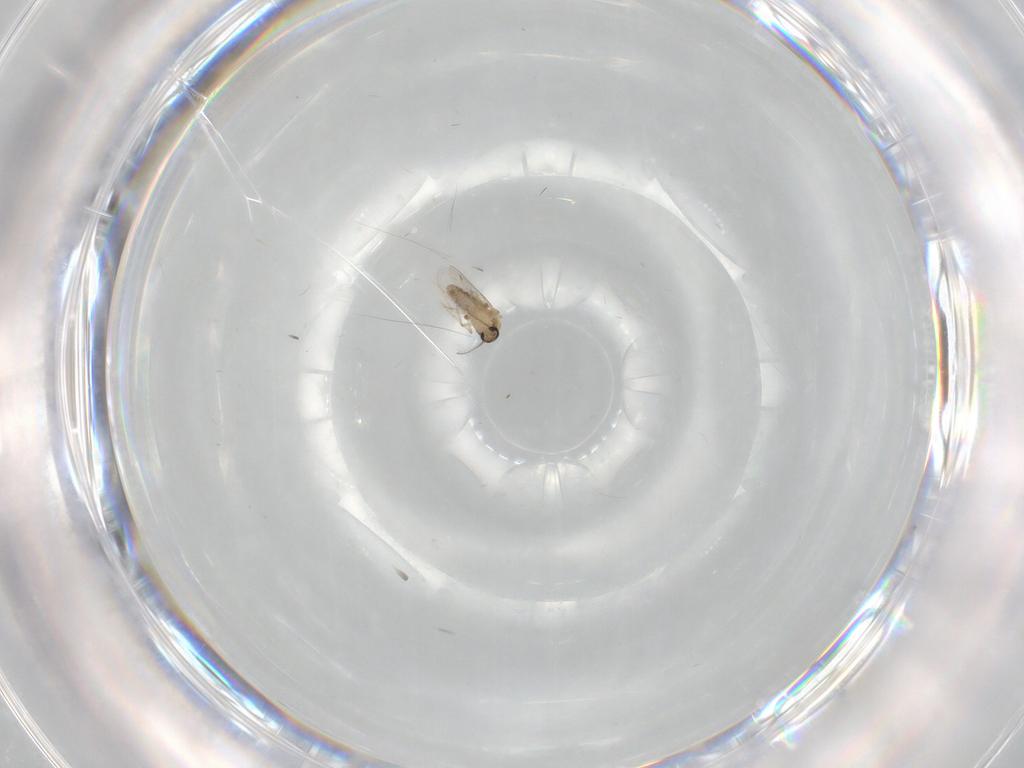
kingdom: Animalia
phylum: Arthropoda
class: Insecta
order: Diptera
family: Ceratopogonidae
